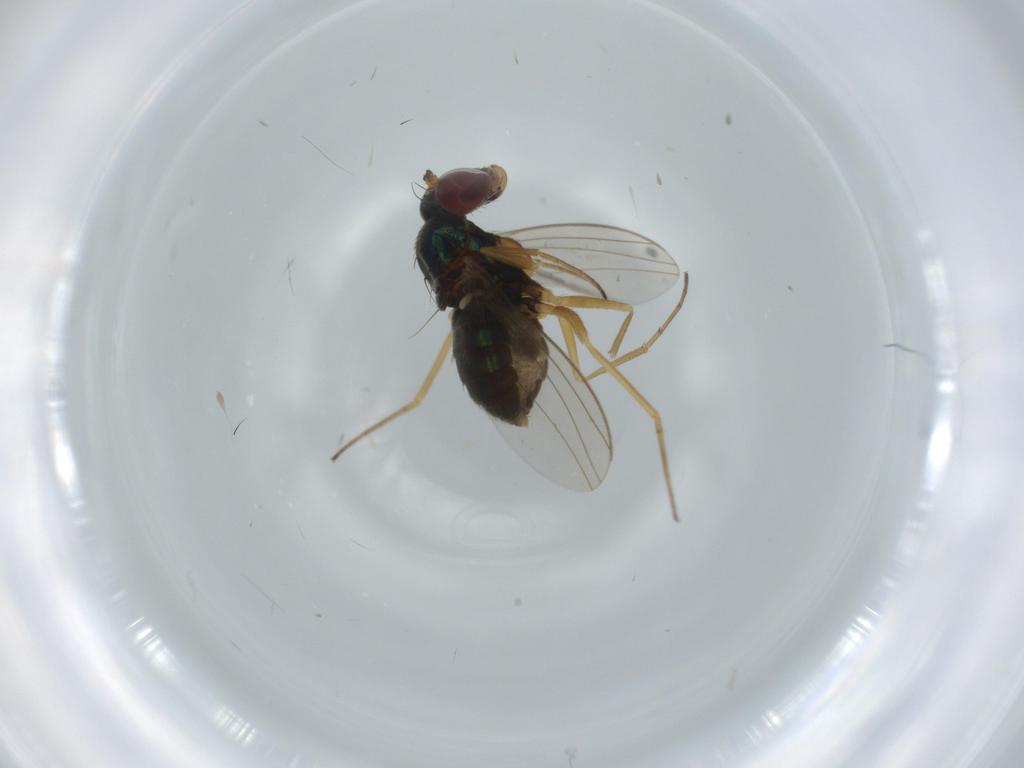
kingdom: Animalia
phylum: Arthropoda
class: Insecta
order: Diptera
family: Dolichopodidae
